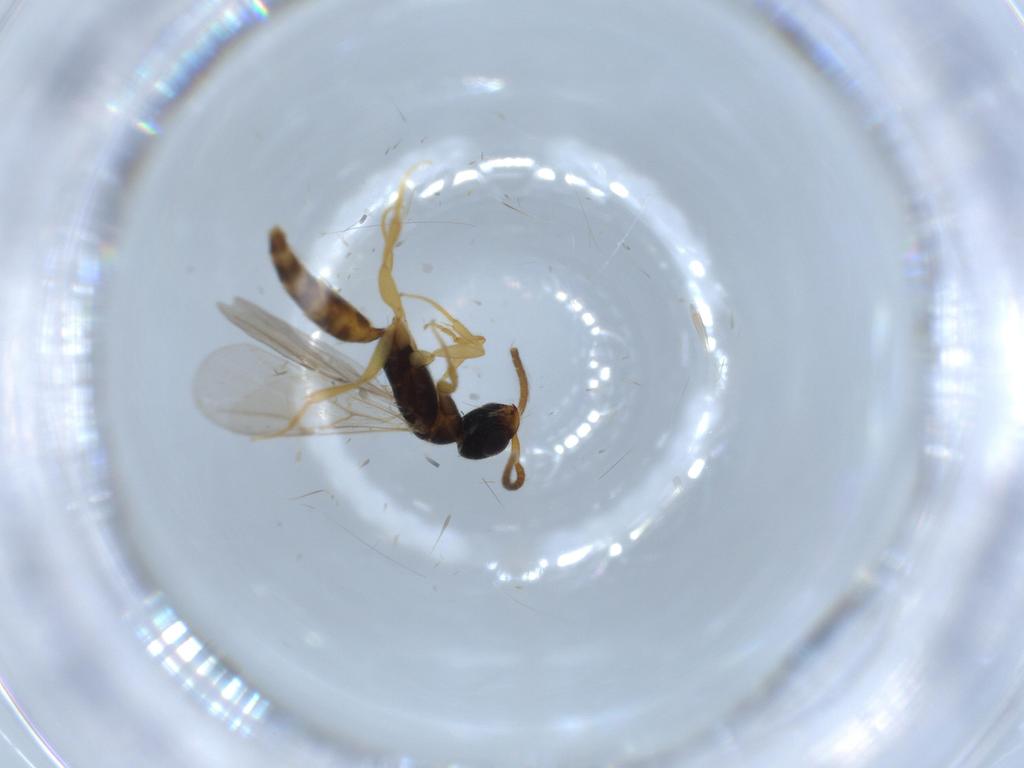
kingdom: Animalia
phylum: Arthropoda
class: Insecta
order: Hymenoptera
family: Bethylidae
